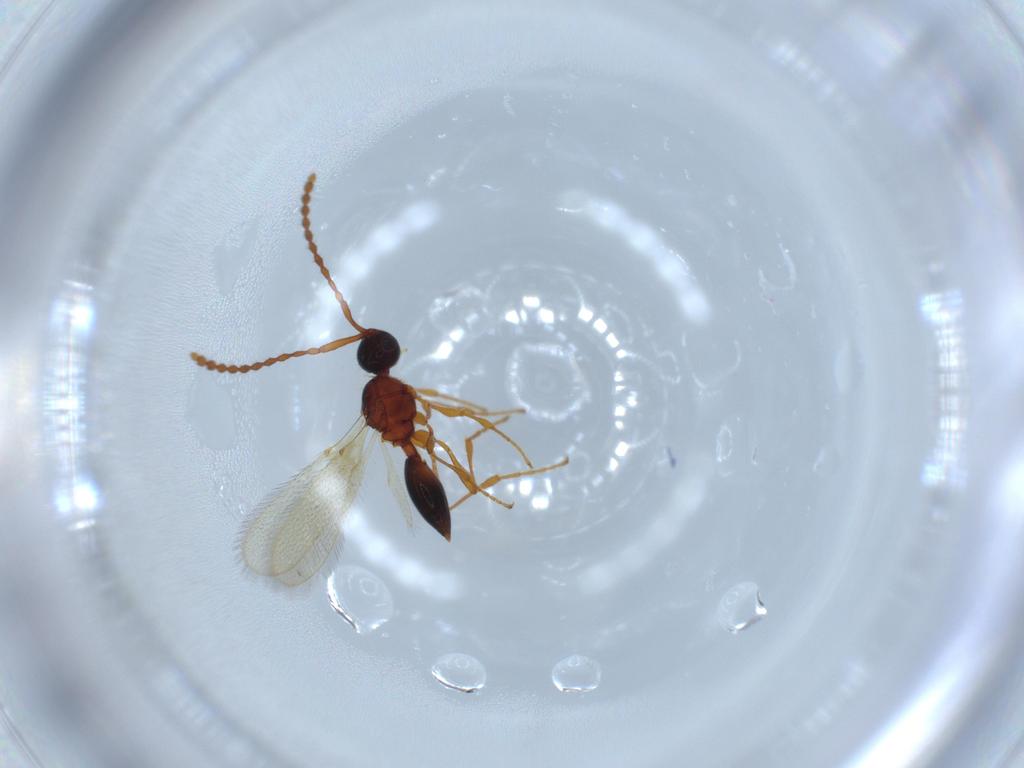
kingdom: Animalia
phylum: Arthropoda
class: Insecta
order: Hymenoptera
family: Diapriidae
